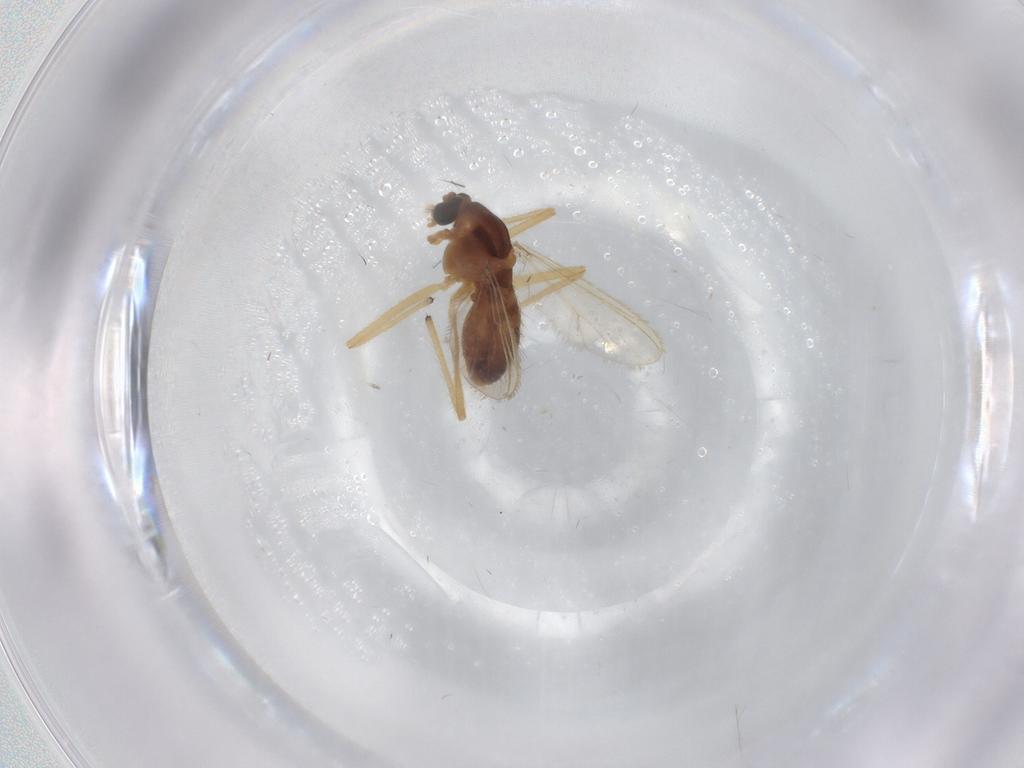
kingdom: Animalia
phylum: Arthropoda
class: Insecta
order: Diptera
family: Chironomidae
